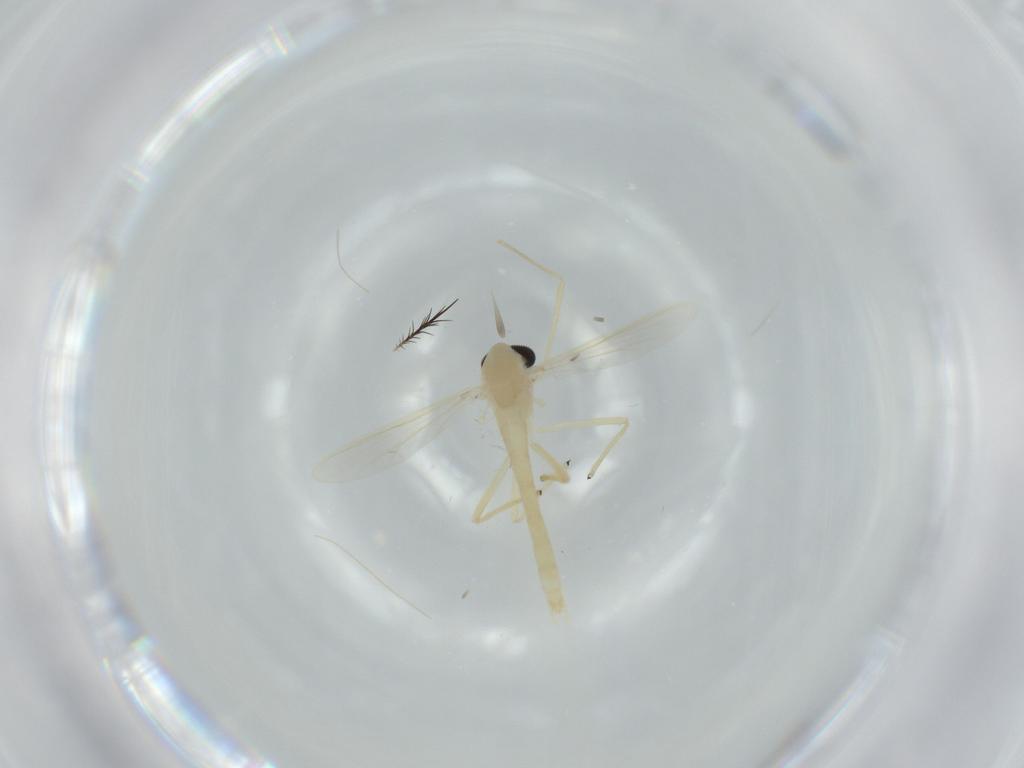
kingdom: Animalia
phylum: Arthropoda
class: Insecta
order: Diptera
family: Chironomidae
